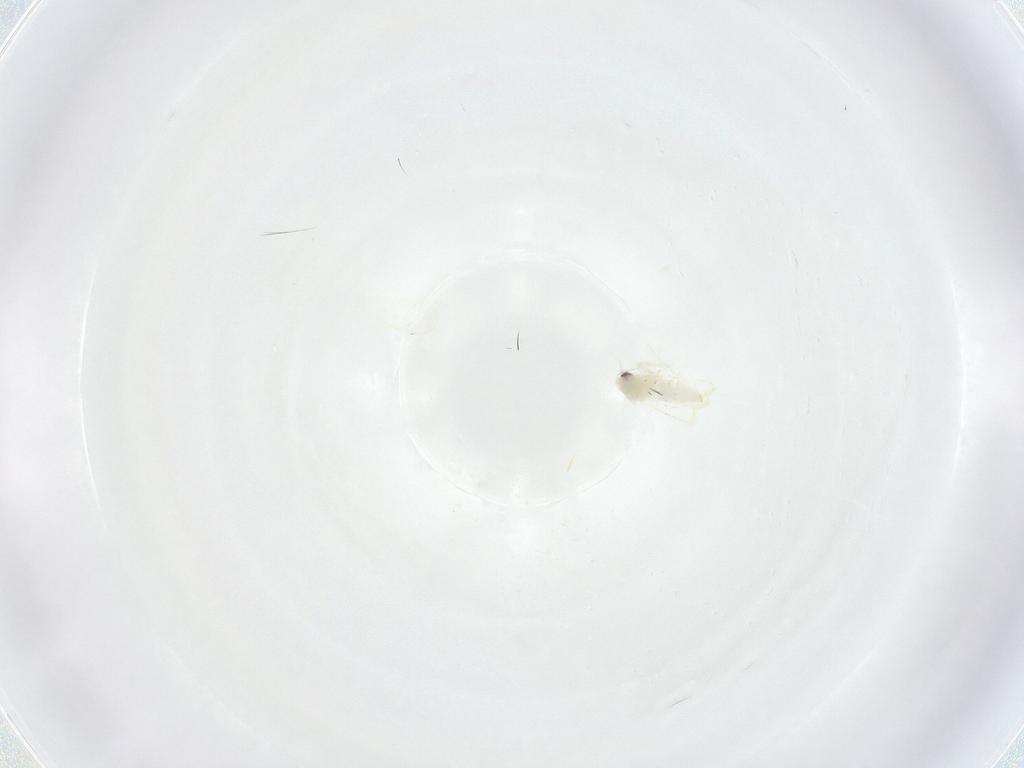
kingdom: Animalia
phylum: Arthropoda
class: Insecta
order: Hemiptera
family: Aleyrodidae
